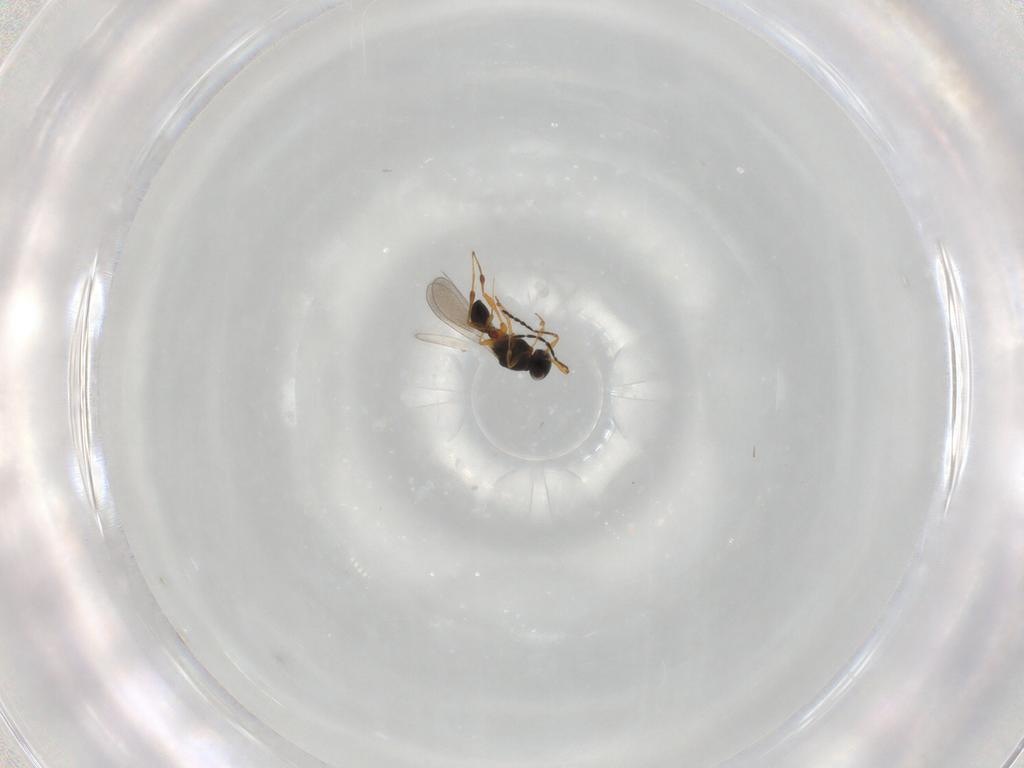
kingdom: Animalia
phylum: Arthropoda
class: Insecta
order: Hymenoptera
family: Platygastridae
